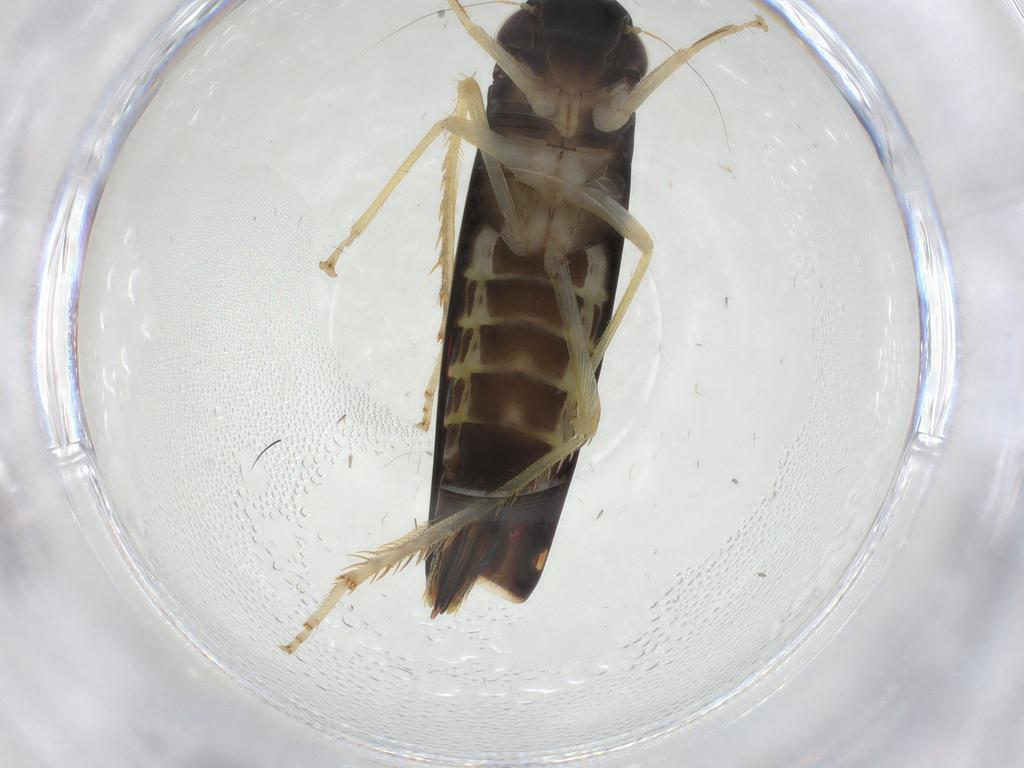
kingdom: Animalia
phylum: Arthropoda
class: Insecta
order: Hemiptera
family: Cicadellidae
